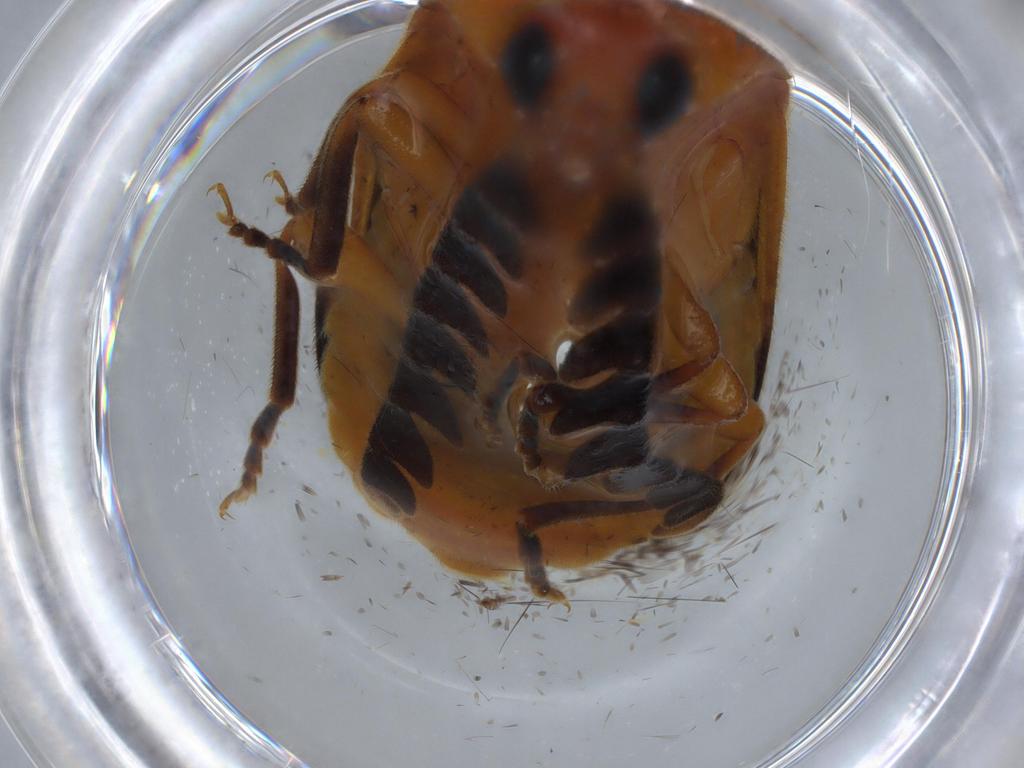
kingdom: Animalia
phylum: Arthropoda
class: Insecta
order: Coleoptera
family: Lampyridae
